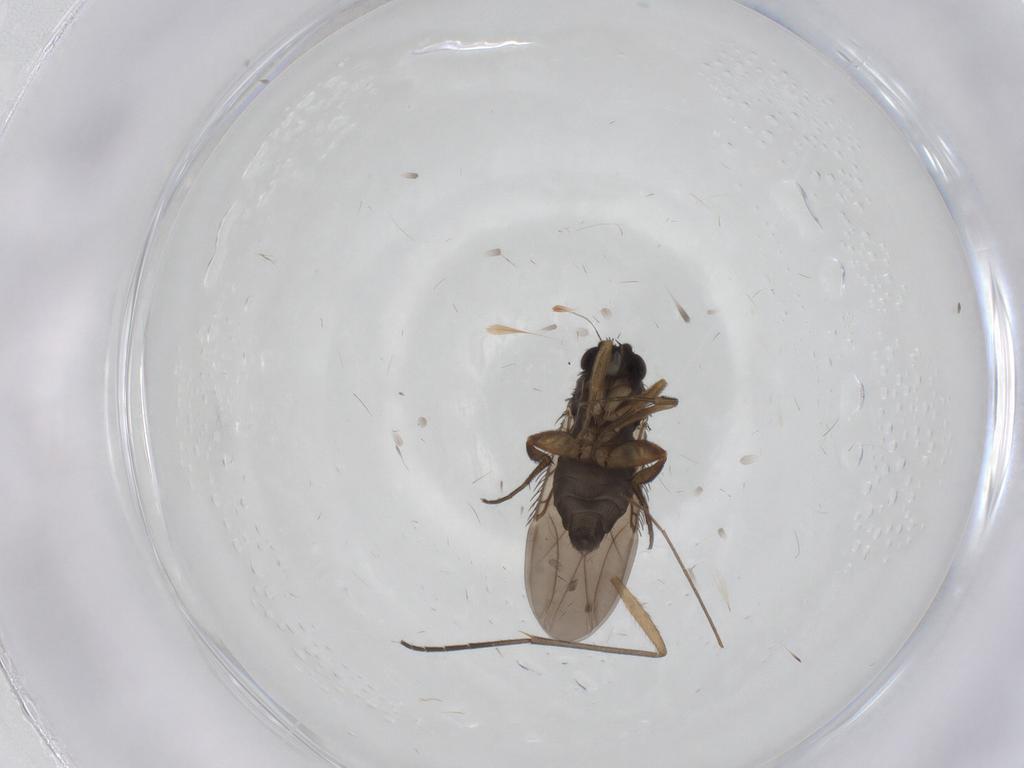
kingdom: Animalia
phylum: Arthropoda
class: Insecta
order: Diptera
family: Phoridae
